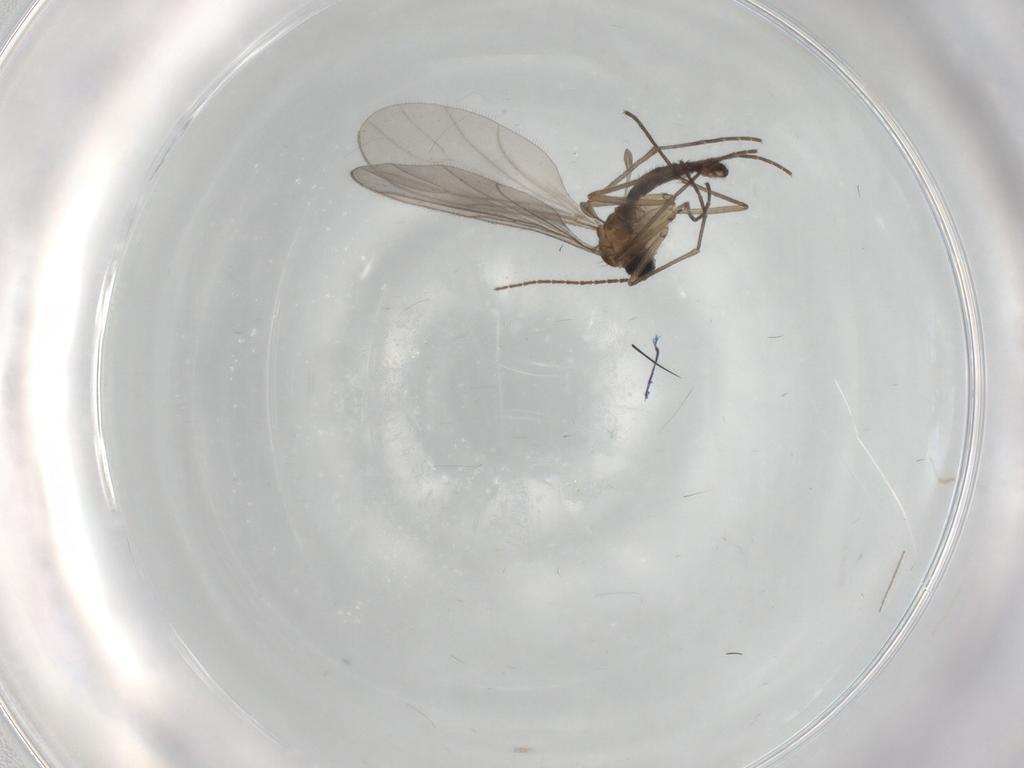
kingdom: Animalia
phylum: Arthropoda
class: Insecta
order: Diptera
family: Sciaridae
